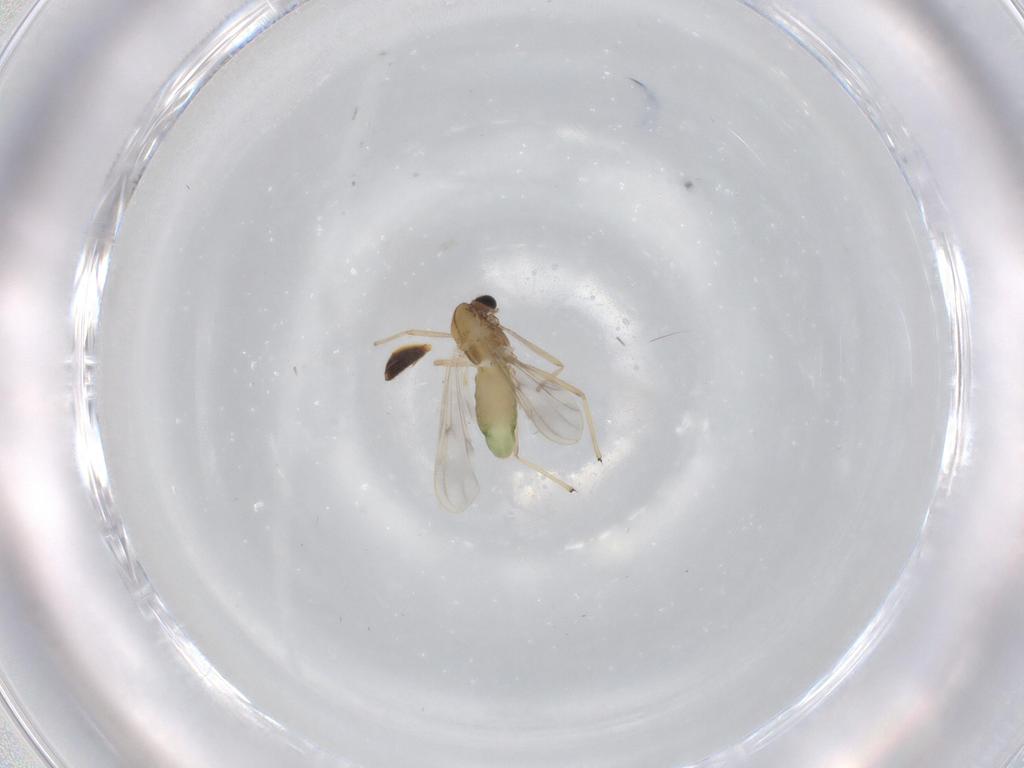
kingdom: Animalia
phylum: Arthropoda
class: Insecta
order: Diptera
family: Chironomidae
